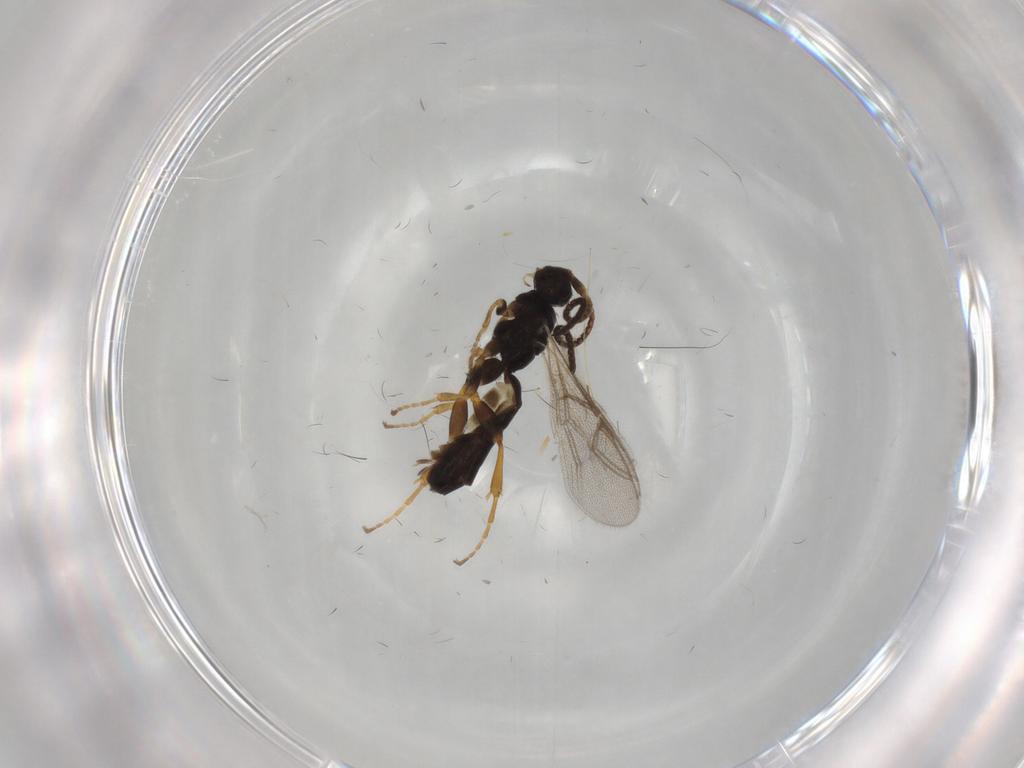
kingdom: Animalia
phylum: Arthropoda
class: Insecta
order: Hymenoptera
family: Ichneumonidae
